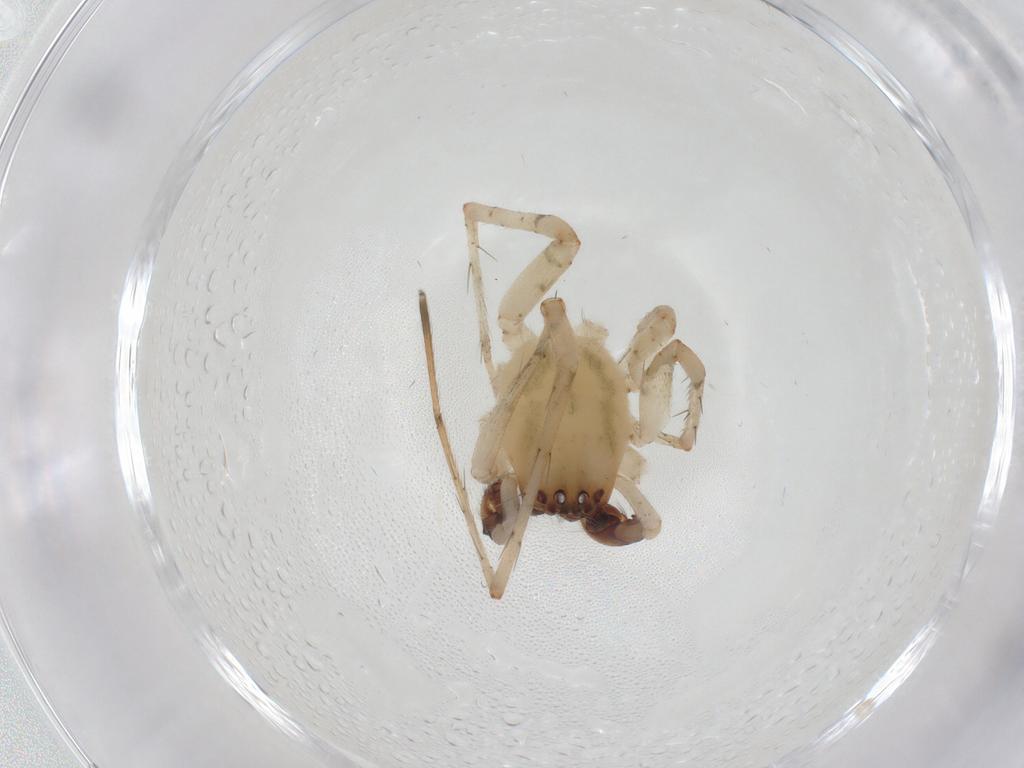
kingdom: Animalia
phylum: Arthropoda
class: Arachnida
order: Araneae
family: Anyphaenidae
